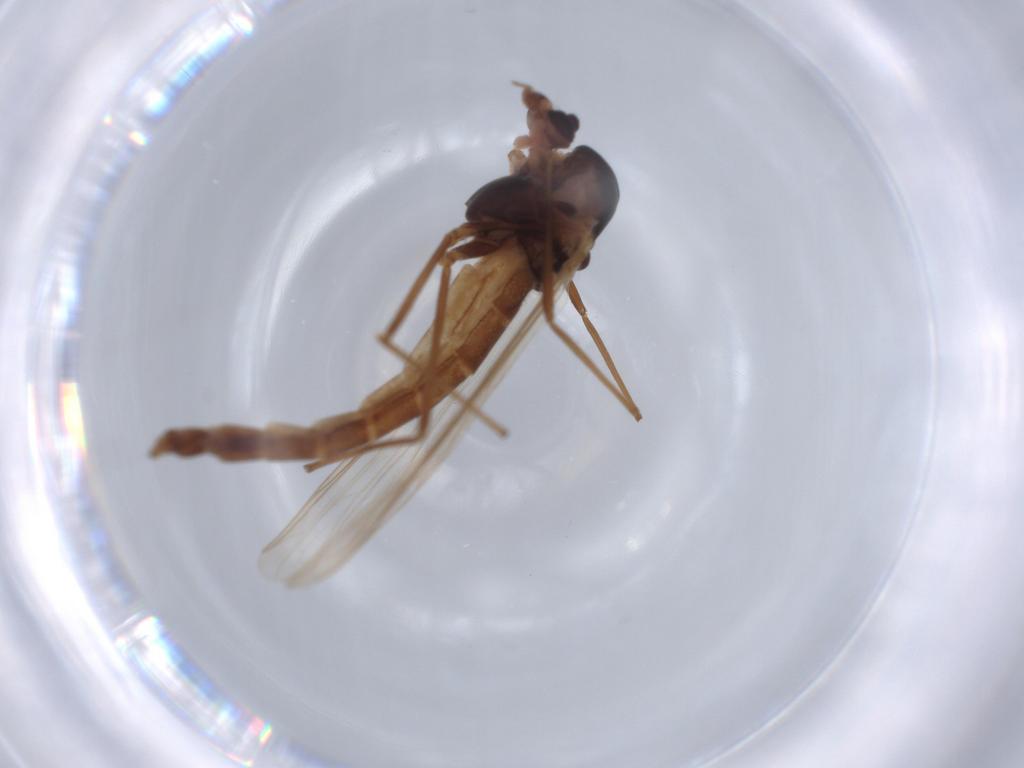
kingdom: Animalia
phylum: Arthropoda
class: Insecta
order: Diptera
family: Chironomidae
